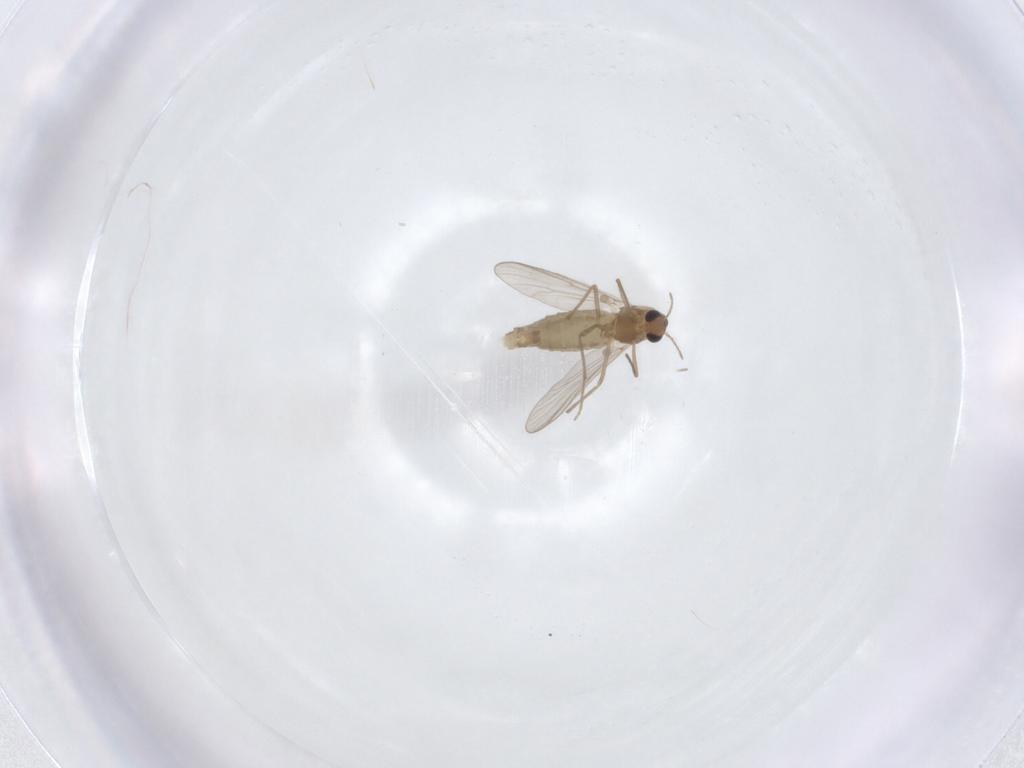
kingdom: Animalia
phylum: Arthropoda
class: Insecta
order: Diptera
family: Chironomidae
